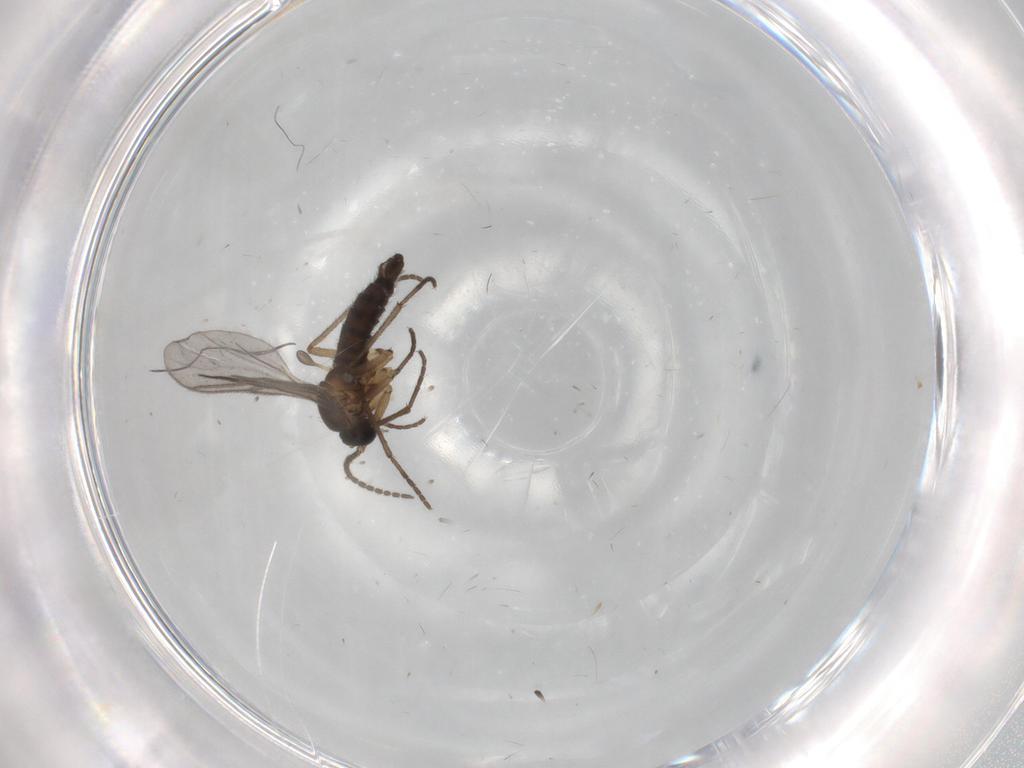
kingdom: Animalia
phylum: Arthropoda
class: Insecta
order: Diptera
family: Sciaridae
